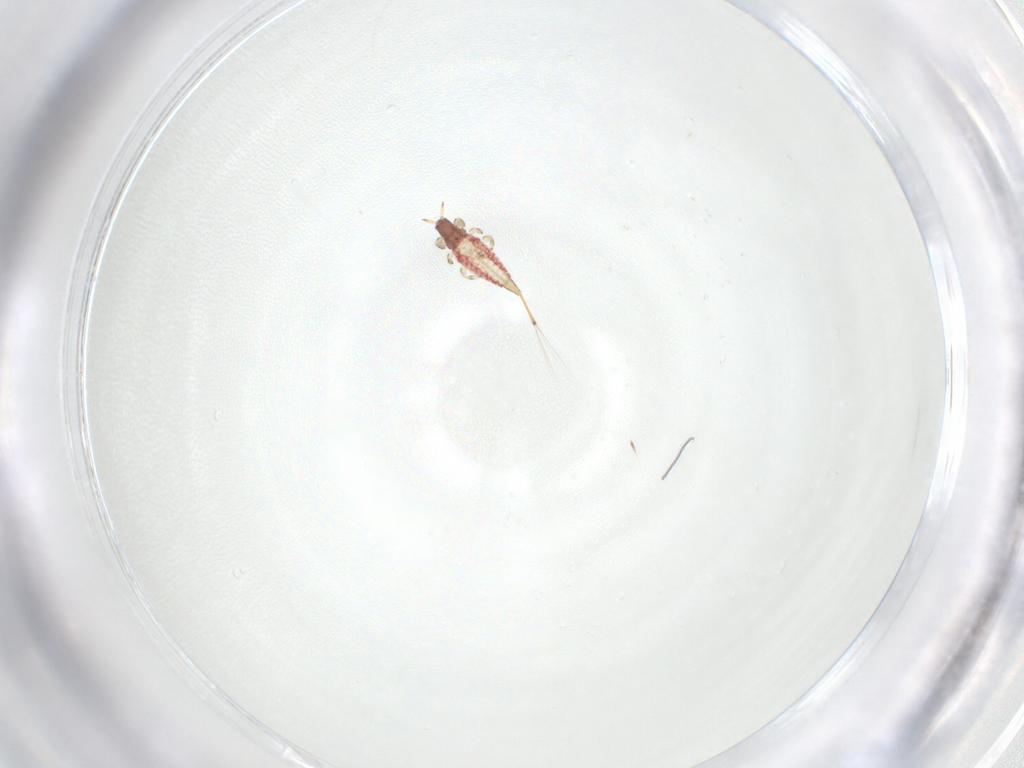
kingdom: Animalia
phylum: Arthropoda
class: Insecta
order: Thysanoptera
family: Phlaeothripidae
